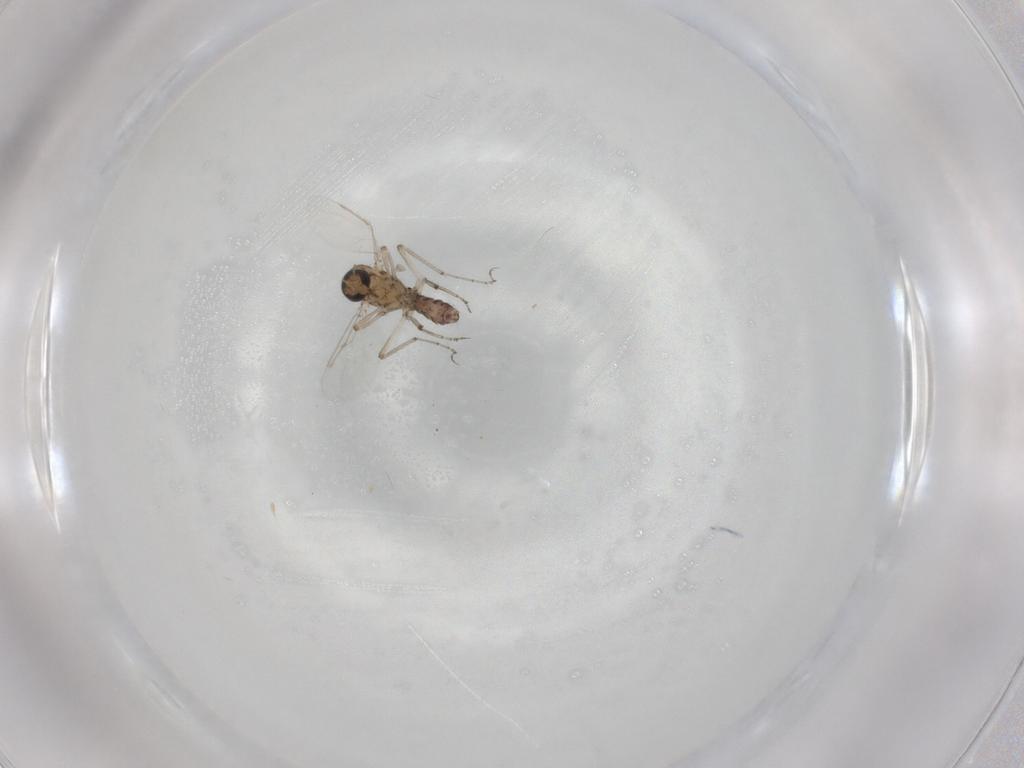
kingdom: Animalia
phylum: Arthropoda
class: Insecta
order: Diptera
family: Ceratopogonidae
